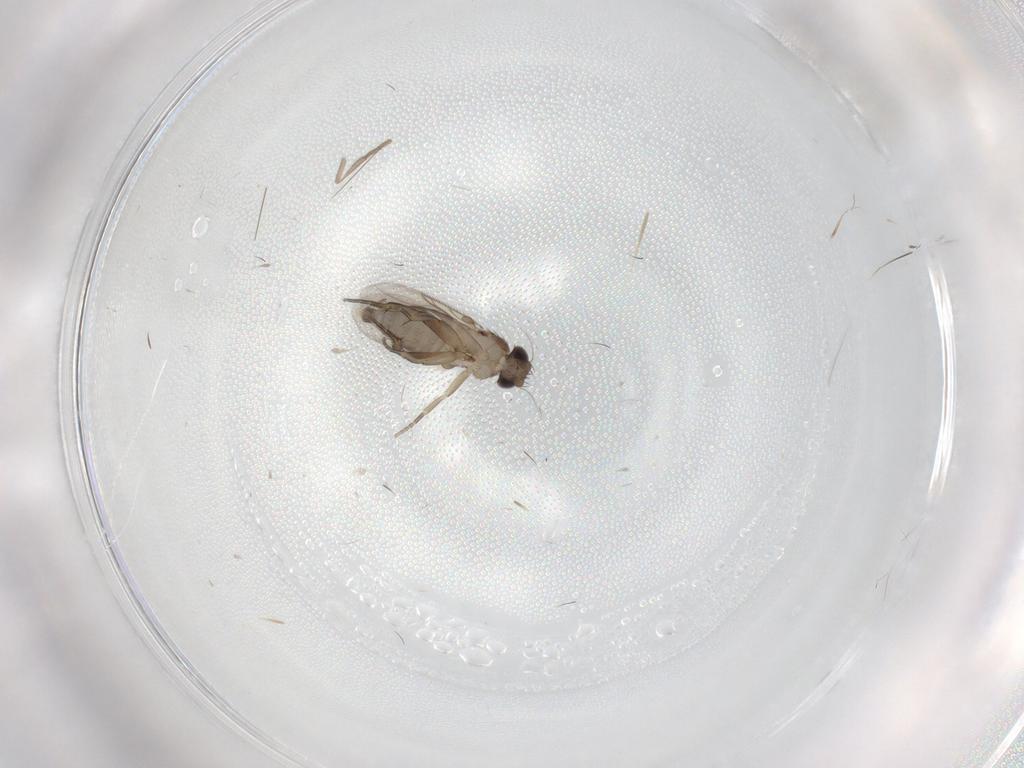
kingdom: Animalia
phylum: Arthropoda
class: Insecta
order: Diptera
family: Phoridae
